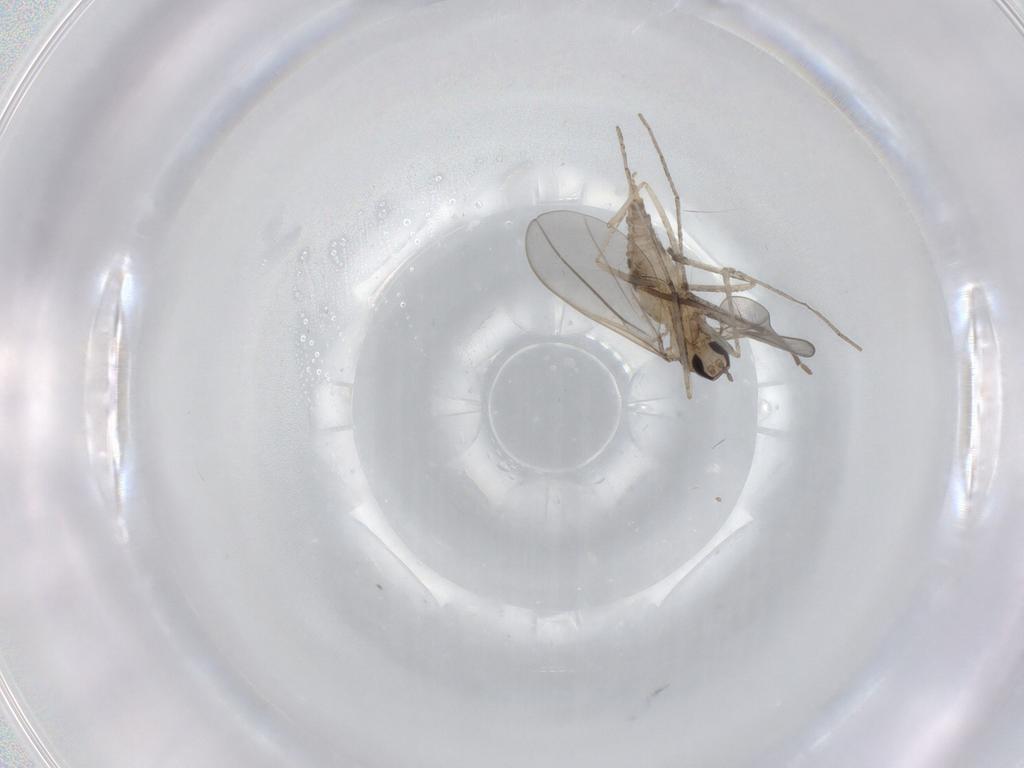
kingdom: Animalia
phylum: Arthropoda
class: Insecta
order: Diptera
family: Cecidomyiidae
